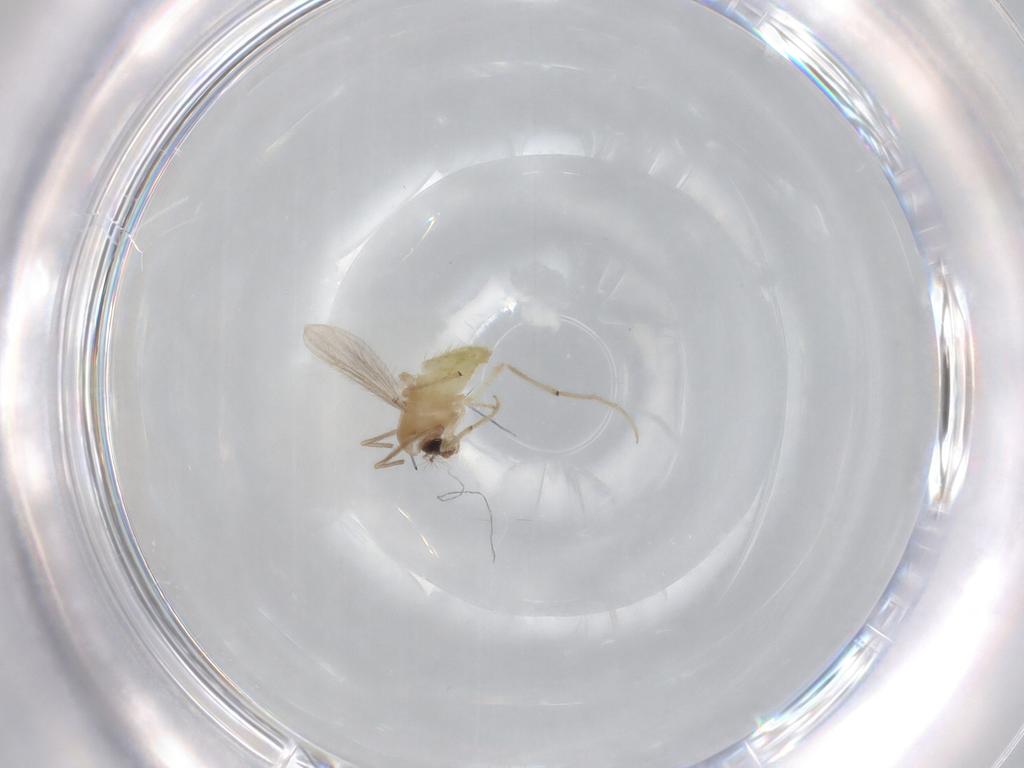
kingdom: Animalia
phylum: Arthropoda
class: Insecta
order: Diptera
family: Chironomidae
